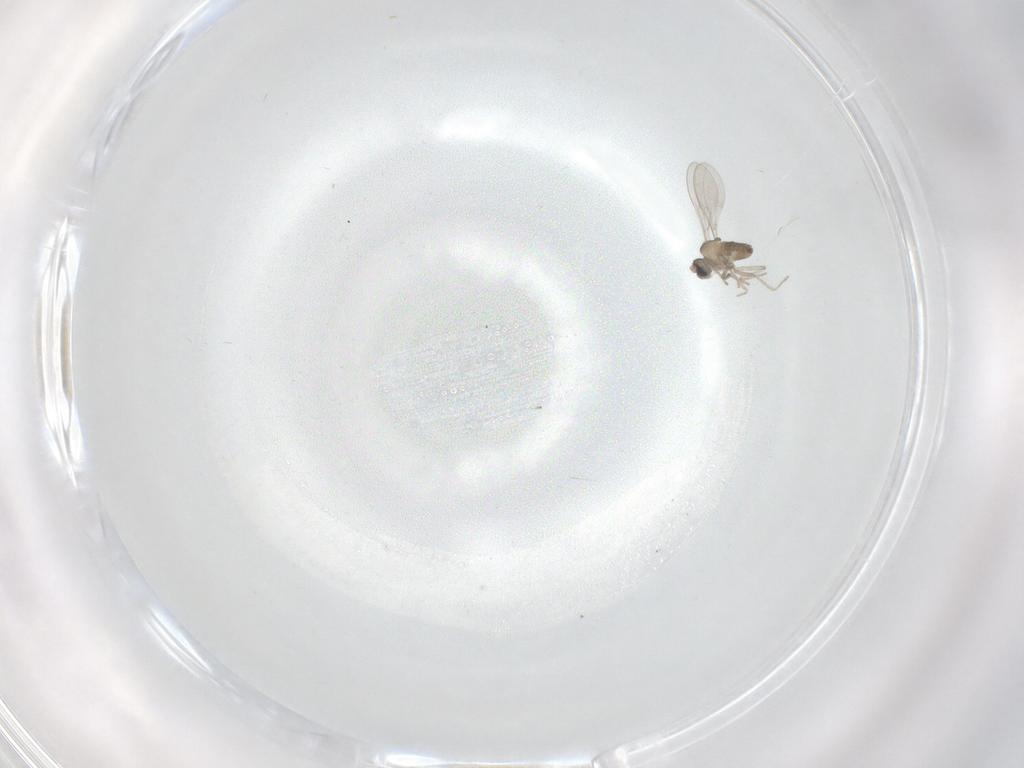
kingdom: Animalia
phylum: Arthropoda
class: Insecta
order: Diptera
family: Cecidomyiidae
